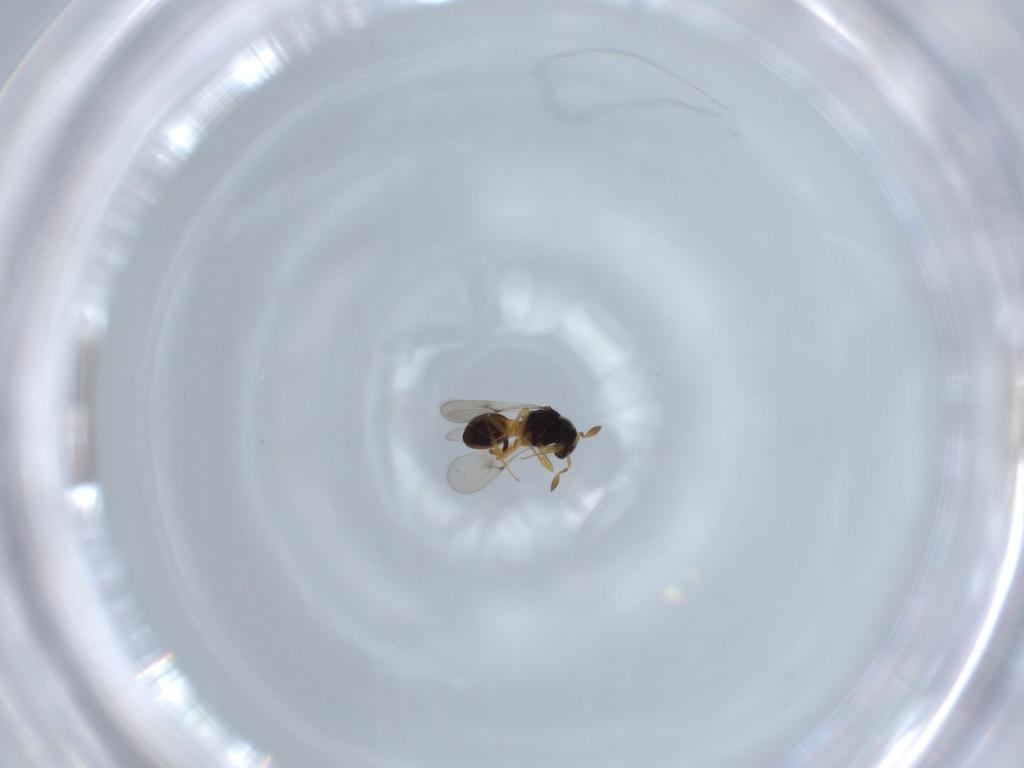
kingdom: Animalia
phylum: Arthropoda
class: Insecta
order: Hymenoptera
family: Scelionidae
